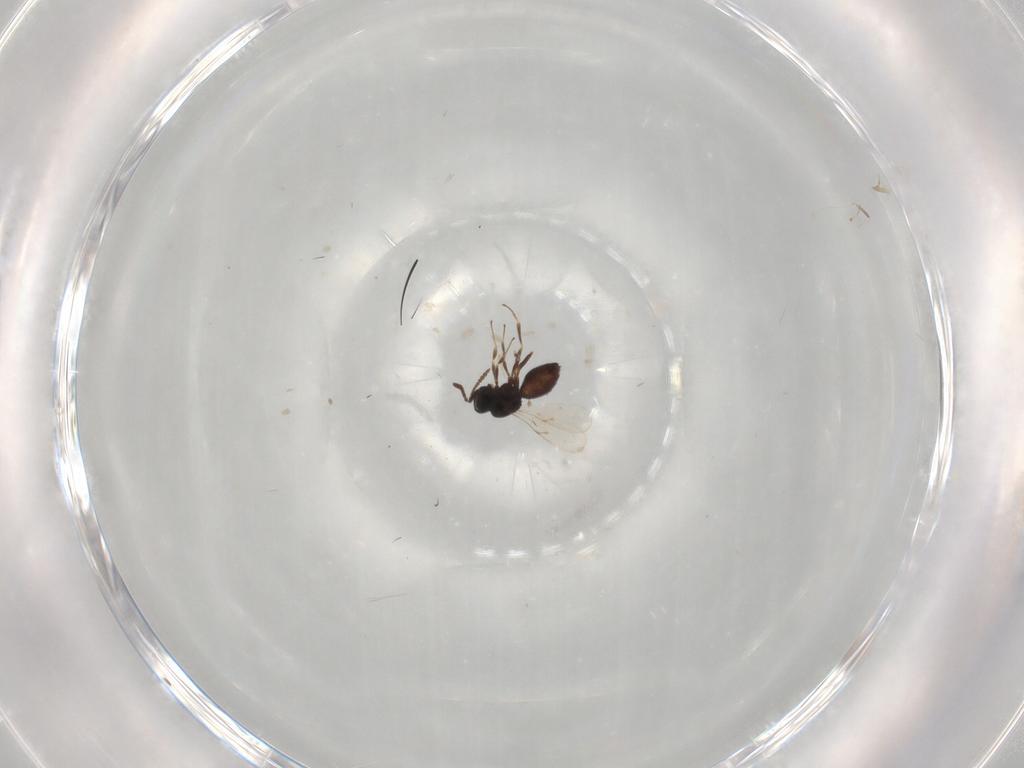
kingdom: Animalia
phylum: Arthropoda
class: Insecta
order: Hymenoptera
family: Scelionidae
